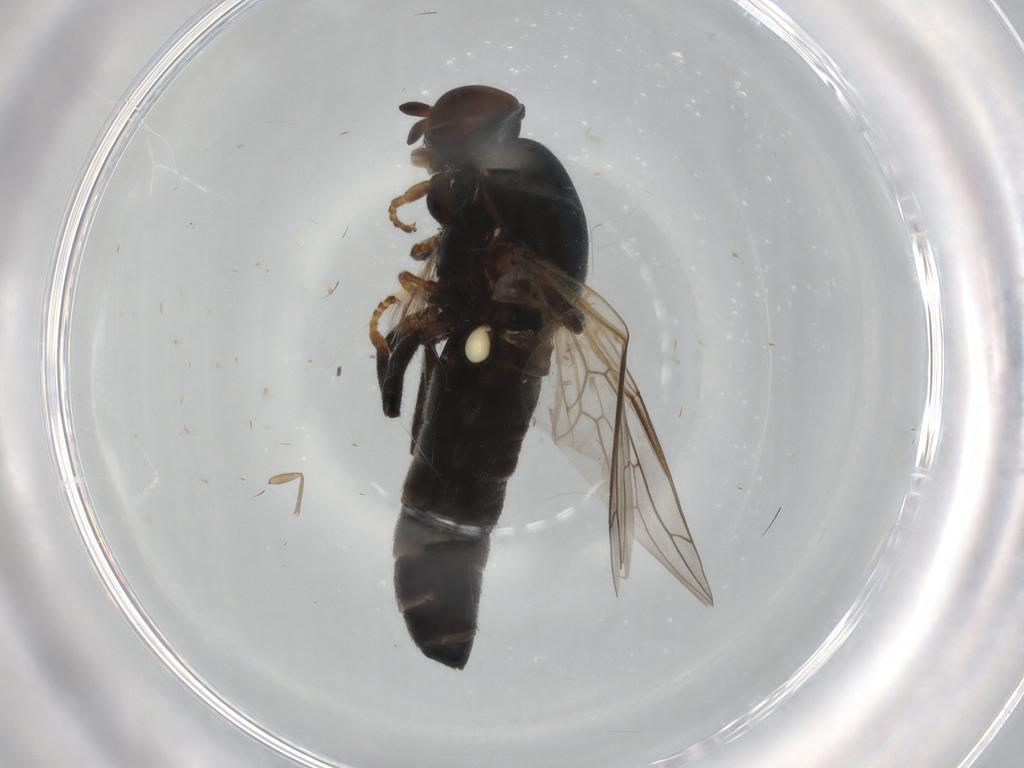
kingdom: Animalia
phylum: Arthropoda
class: Insecta
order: Diptera
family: Scenopinidae
